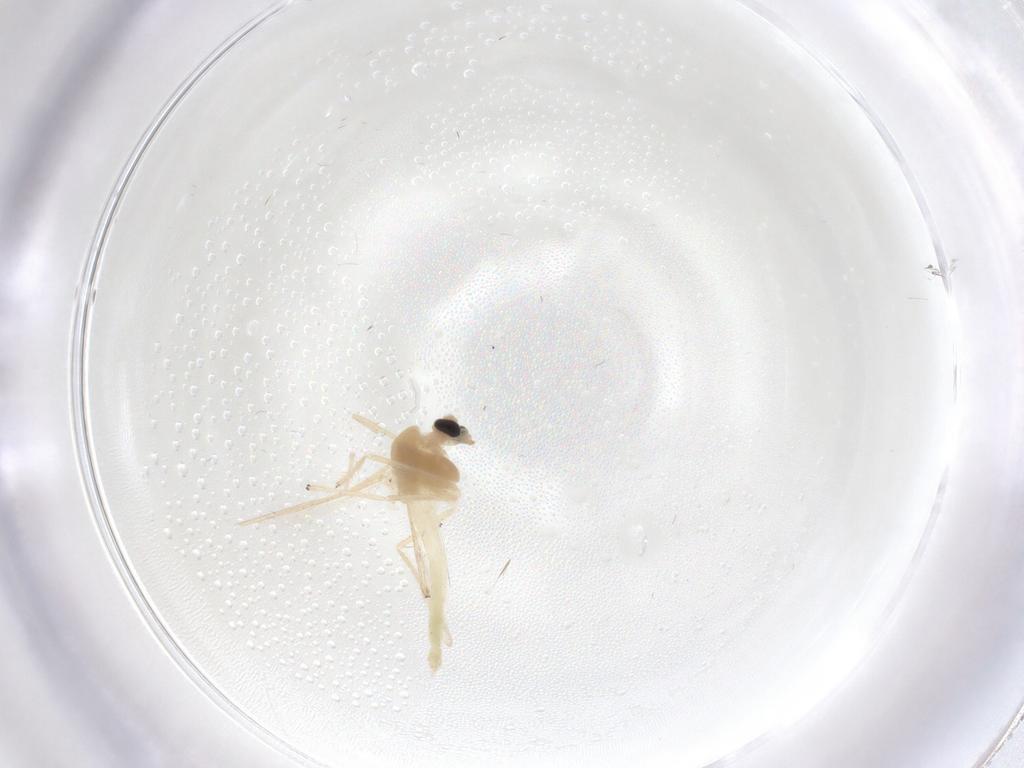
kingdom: Animalia
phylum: Arthropoda
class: Insecta
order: Diptera
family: Chironomidae
